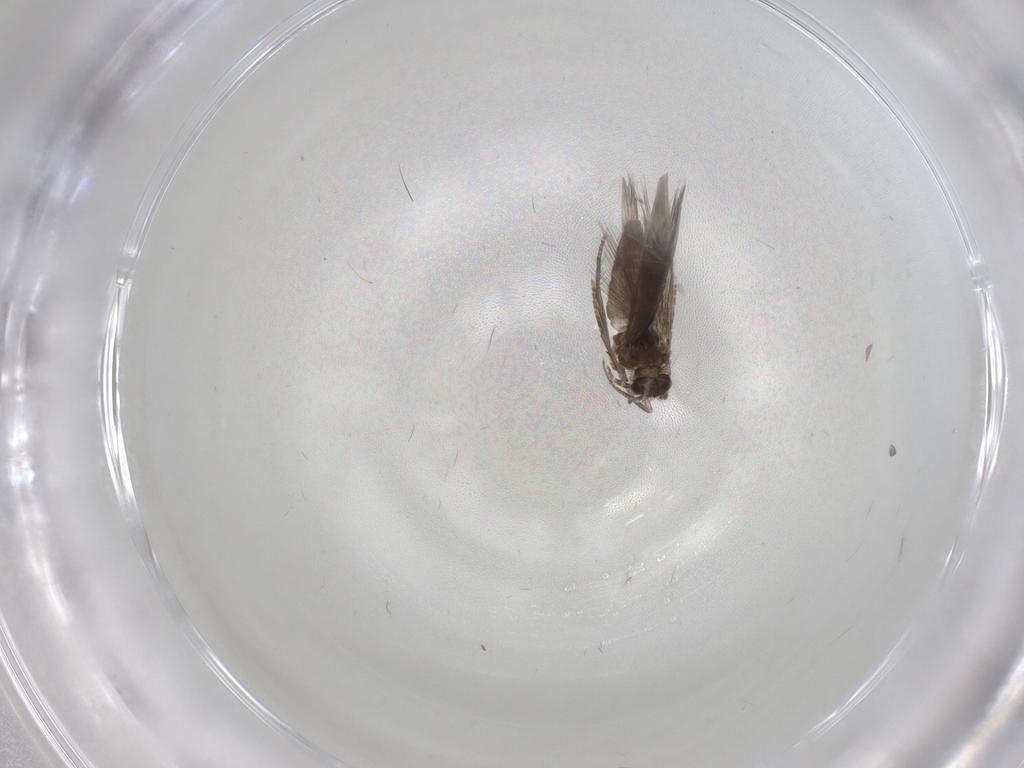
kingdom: Animalia
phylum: Arthropoda
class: Insecta
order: Trichoptera
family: Hydroptilidae
